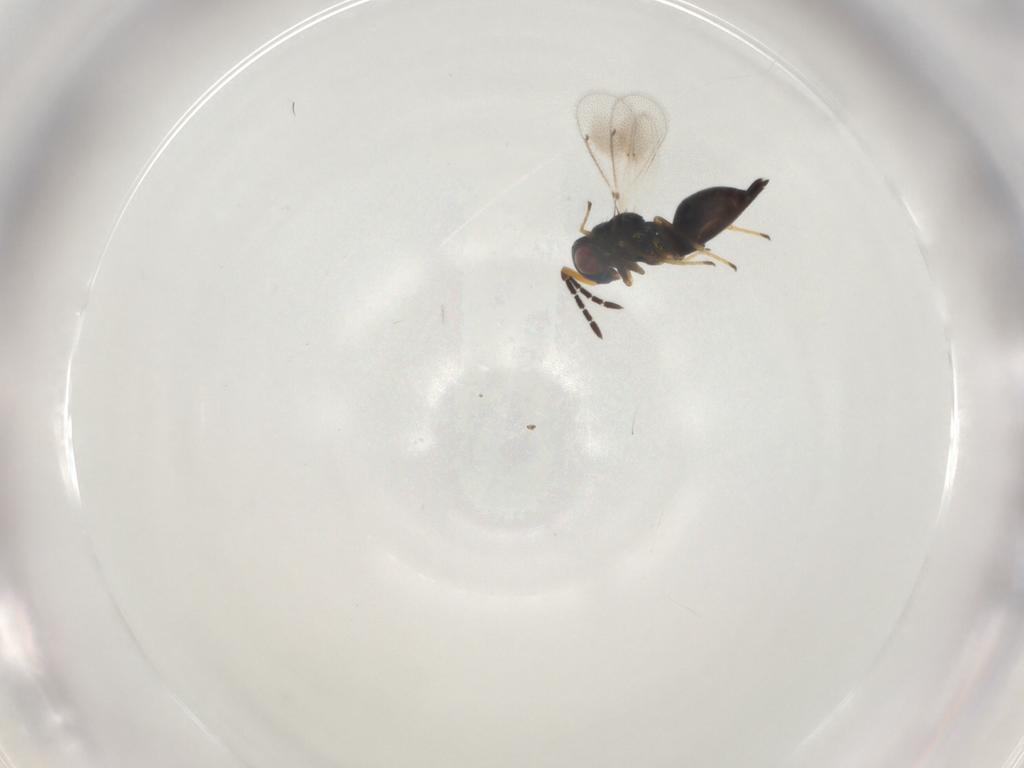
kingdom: Animalia
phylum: Arthropoda
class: Insecta
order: Hymenoptera
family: Eulophidae
